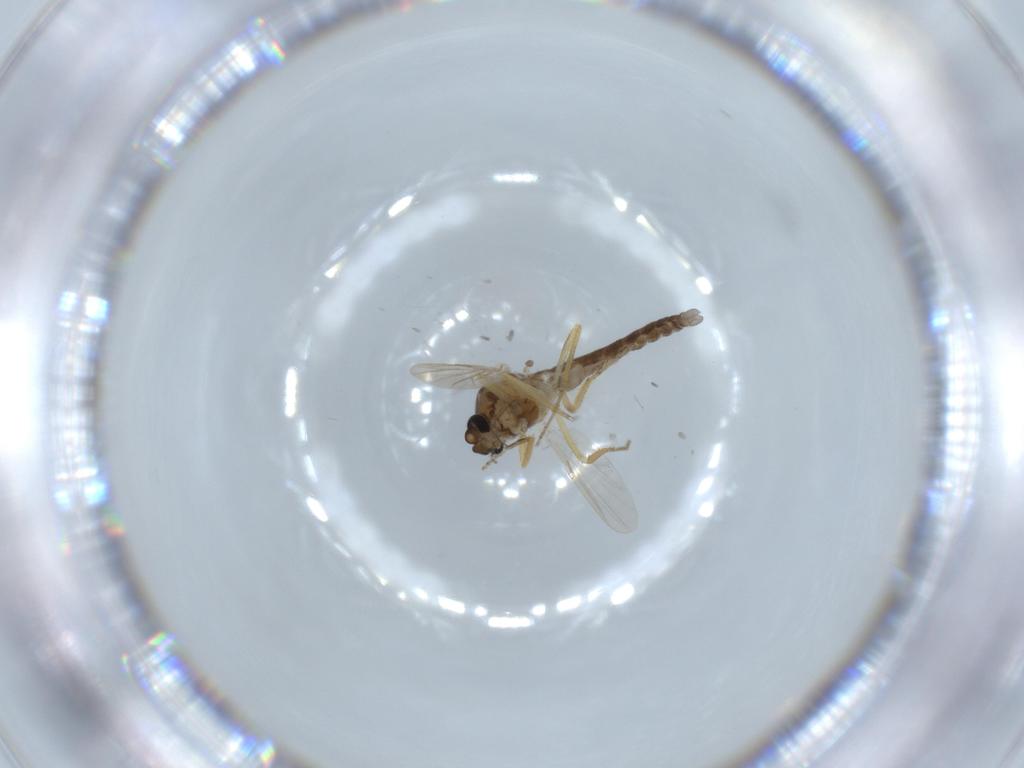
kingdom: Animalia
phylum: Arthropoda
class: Insecta
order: Diptera
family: Ceratopogonidae
